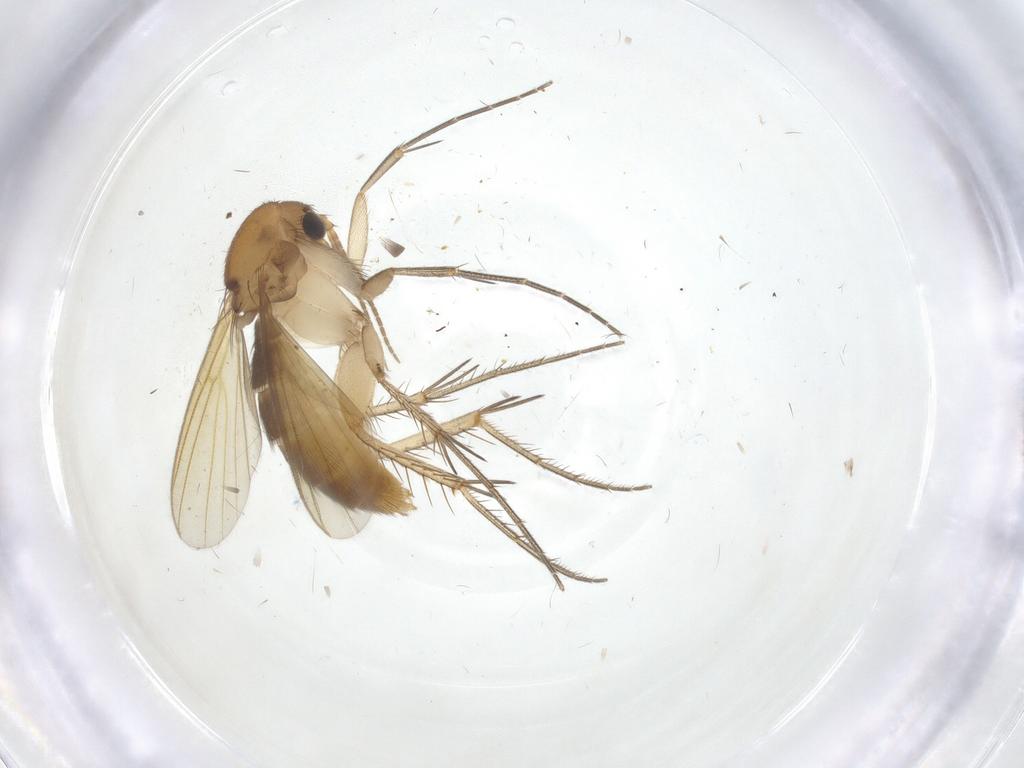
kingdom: Animalia
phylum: Arthropoda
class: Insecta
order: Diptera
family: Mycetophilidae
